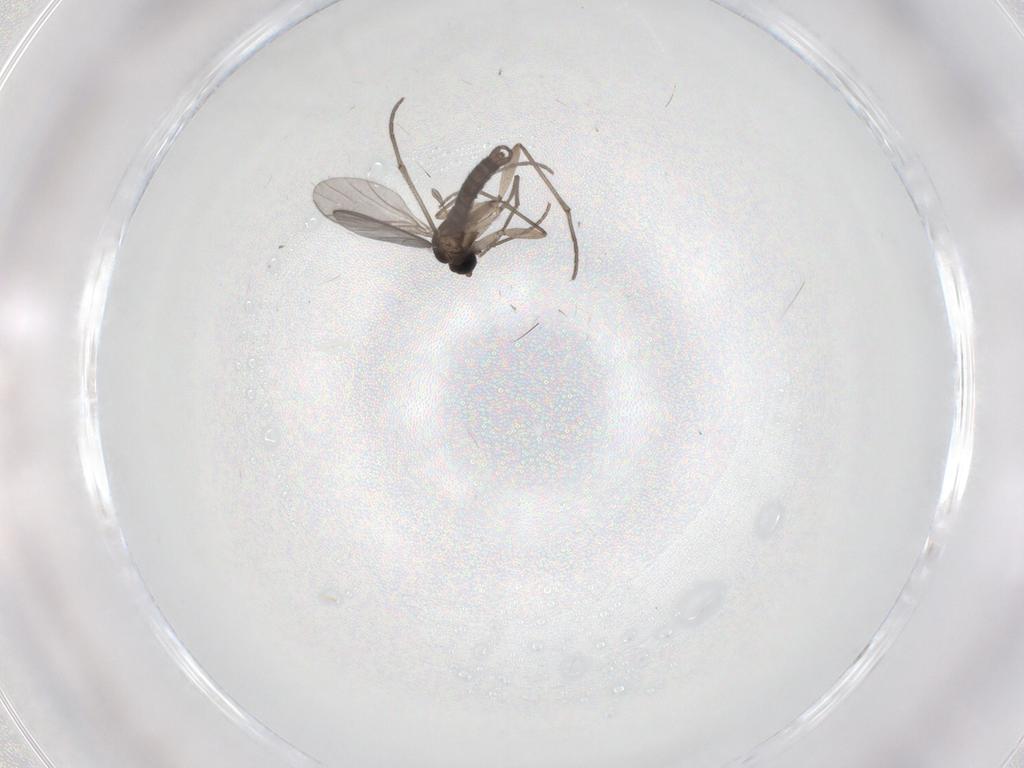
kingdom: Animalia
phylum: Arthropoda
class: Insecta
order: Diptera
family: Sciaridae
